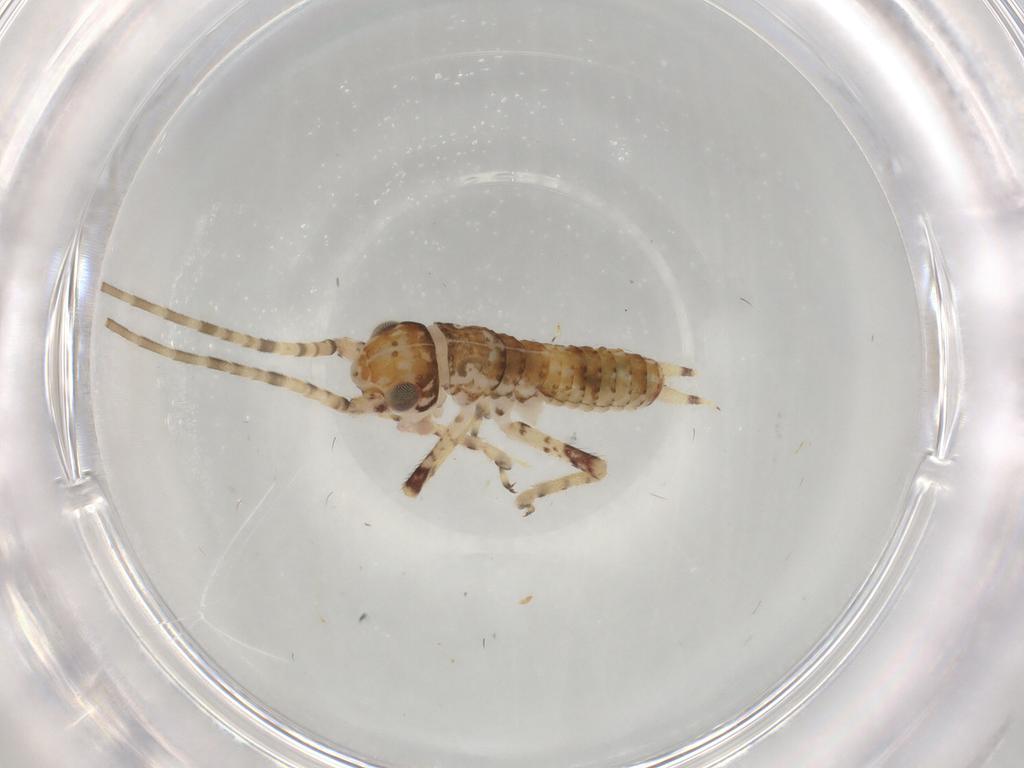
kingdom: Animalia
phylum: Arthropoda
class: Insecta
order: Orthoptera
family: Gryllidae
